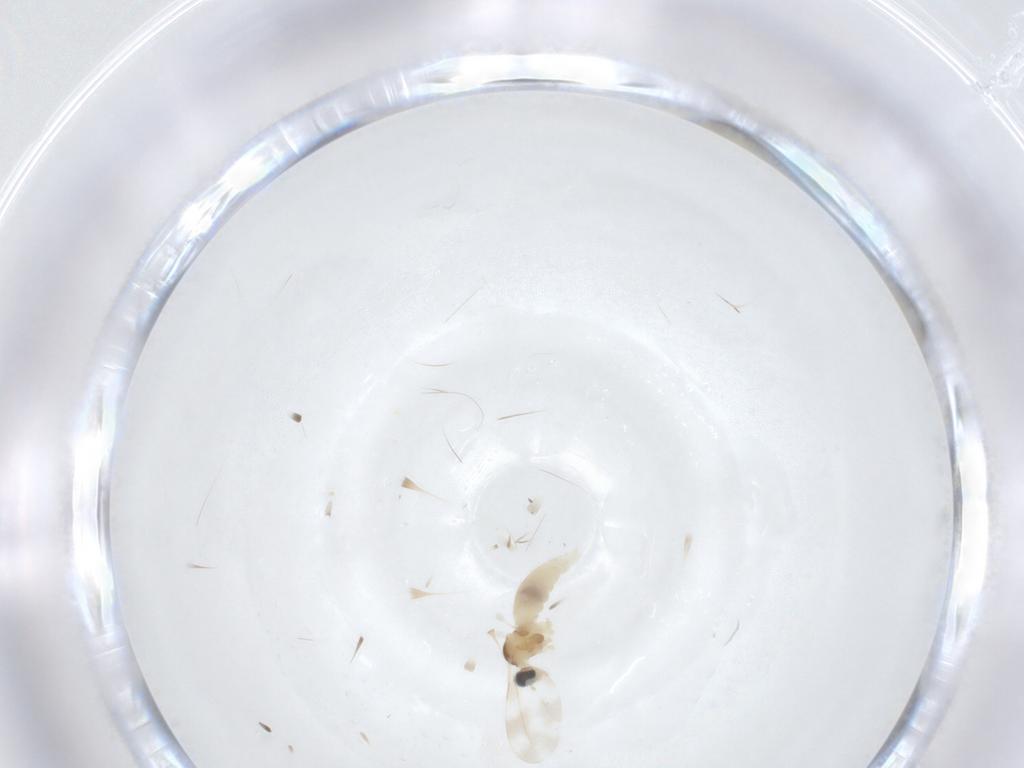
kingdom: Animalia
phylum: Arthropoda
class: Insecta
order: Diptera
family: Cecidomyiidae
